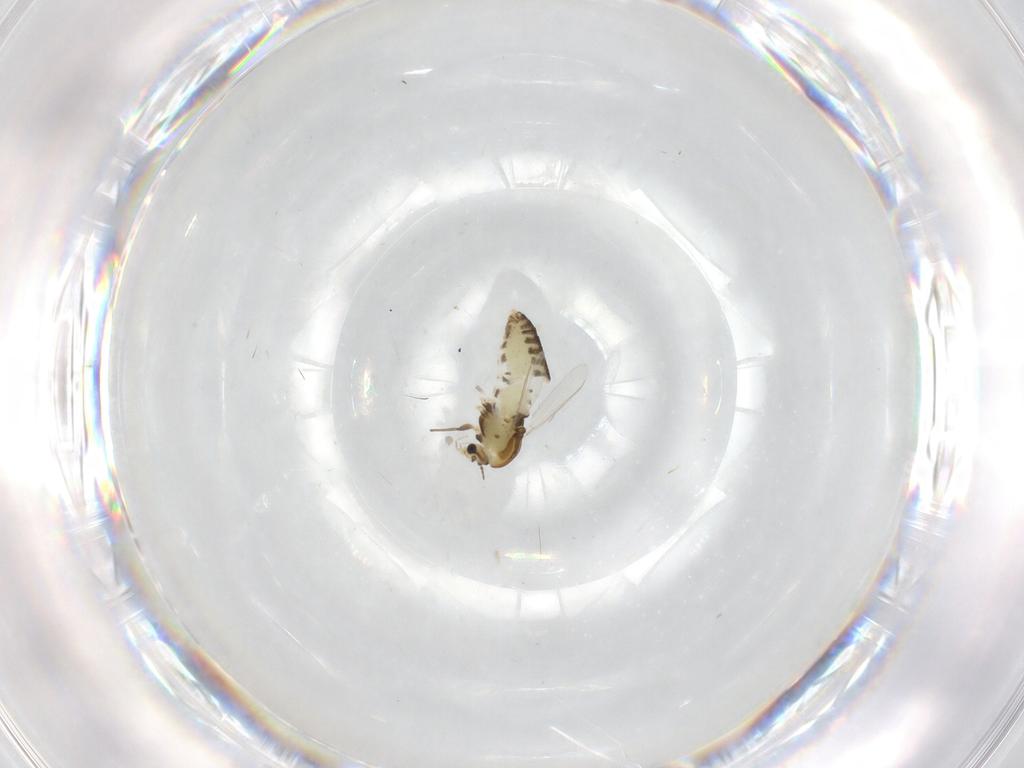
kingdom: Animalia
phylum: Arthropoda
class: Insecta
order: Diptera
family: Chironomidae
